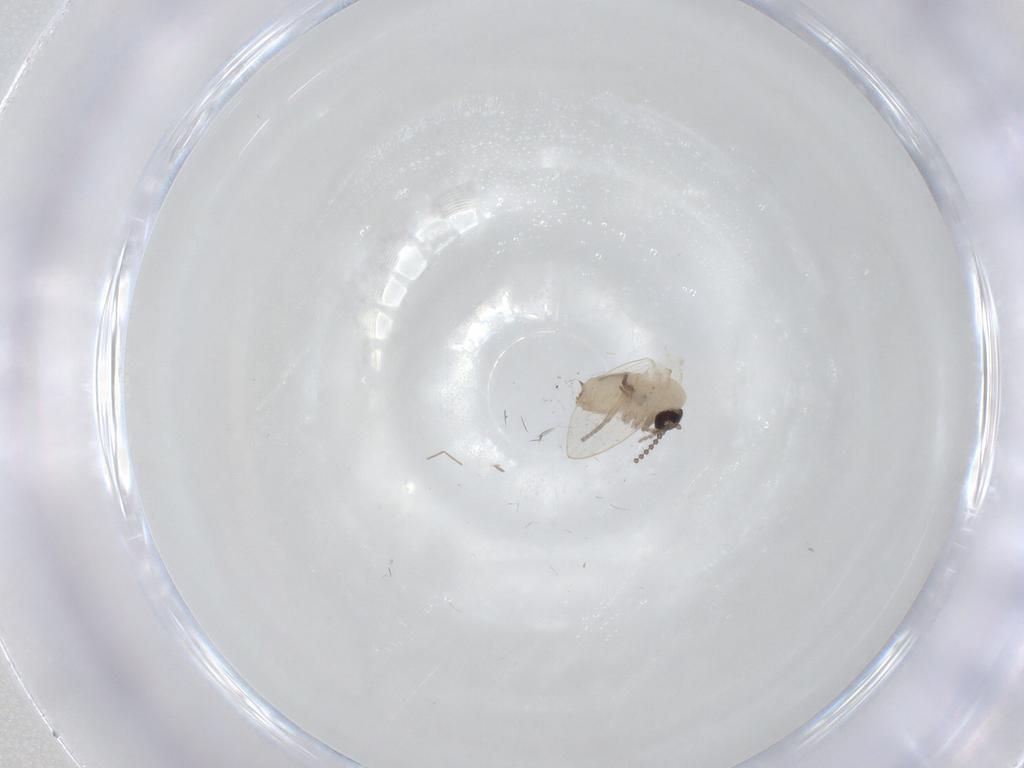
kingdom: Animalia
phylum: Arthropoda
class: Insecta
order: Diptera
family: Psychodidae
